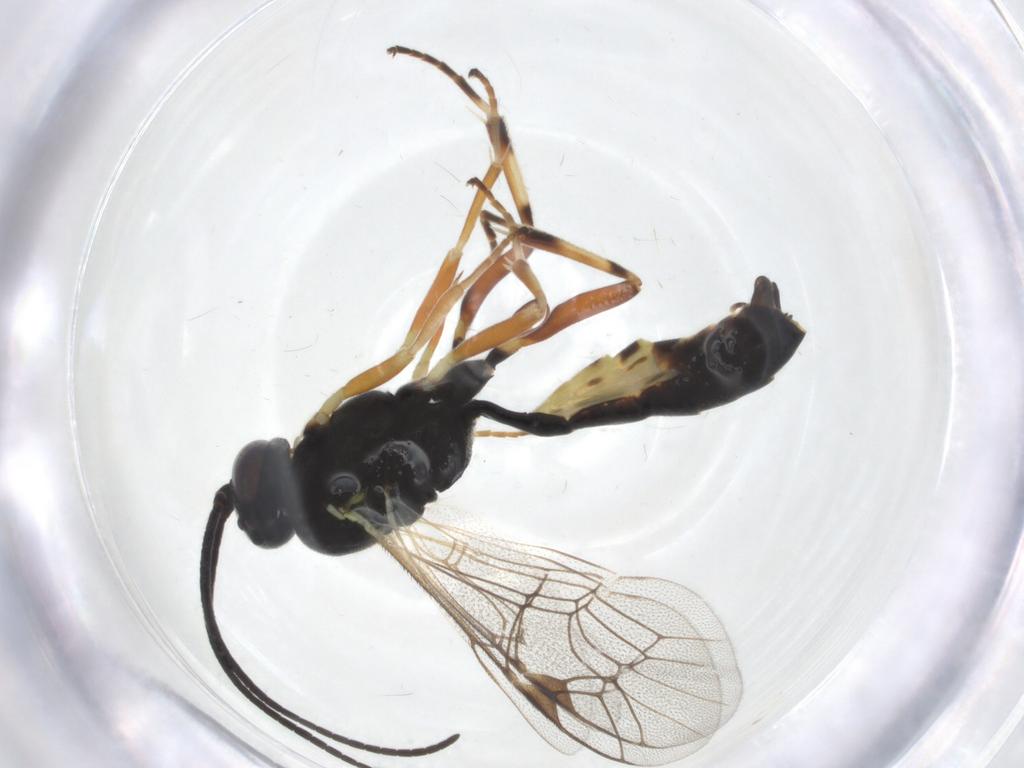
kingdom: Animalia
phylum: Arthropoda
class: Insecta
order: Hymenoptera
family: Ichneumonidae
